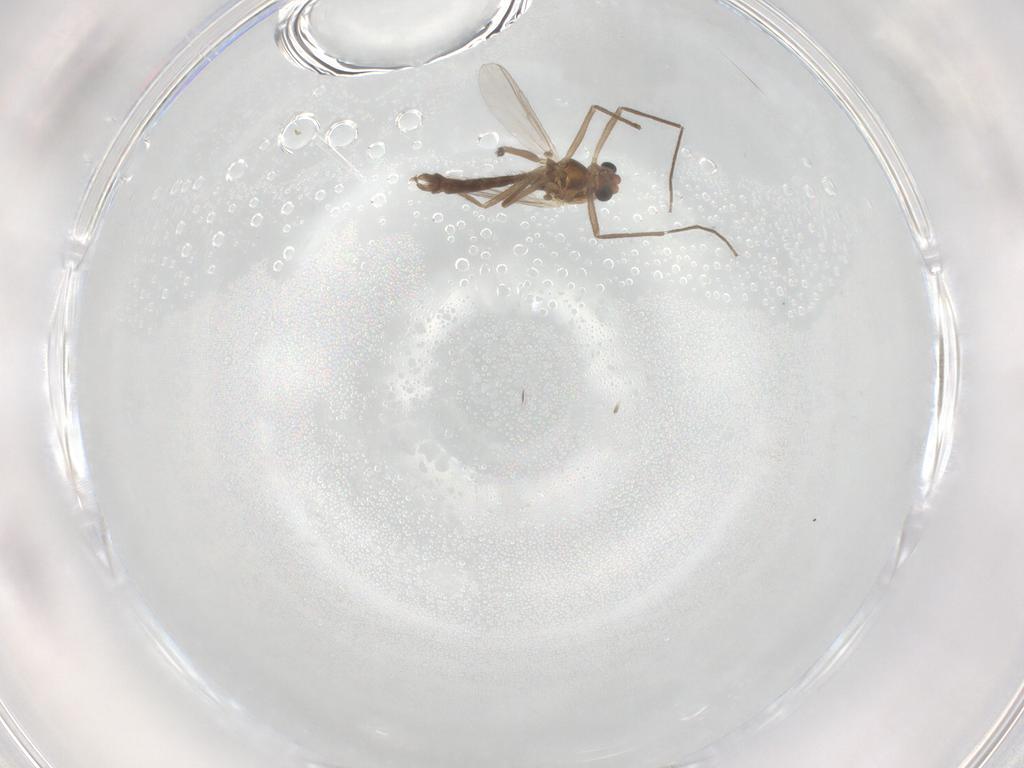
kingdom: Animalia
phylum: Arthropoda
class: Insecta
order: Diptera
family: Chironomidae
